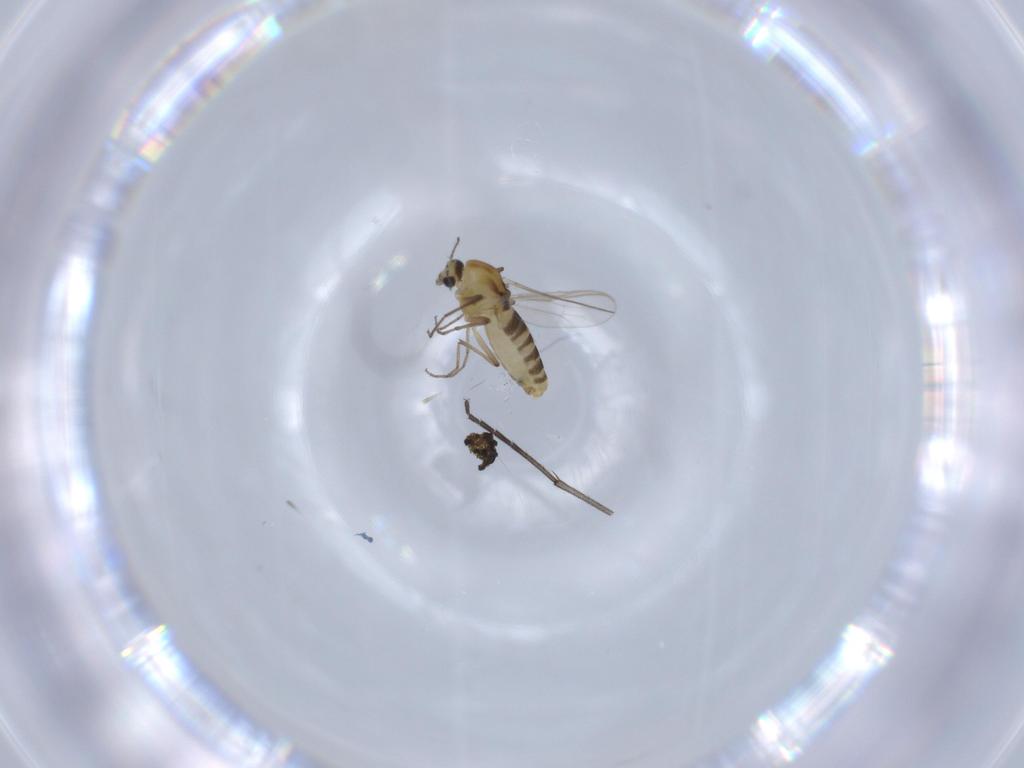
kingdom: Animalia
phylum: Arthropoda
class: Insecta
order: Diptera
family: Chironomidae
